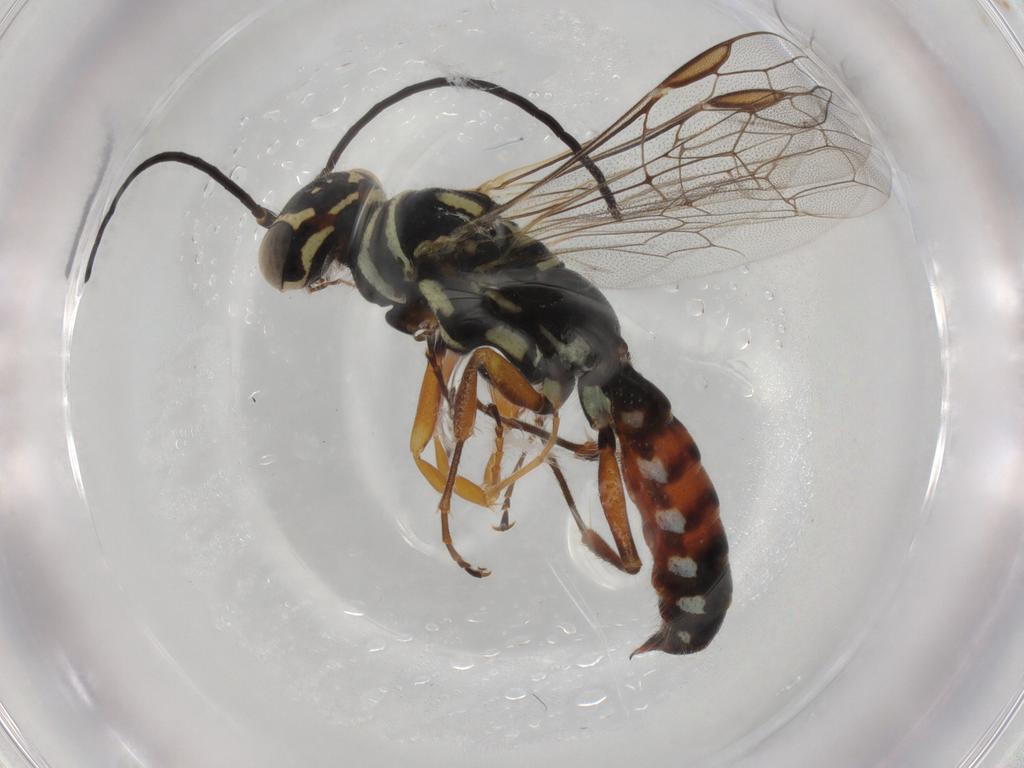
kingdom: Animalia
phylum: Arthropoda
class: Insecta
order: Hymenoptera
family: Thynnidae
